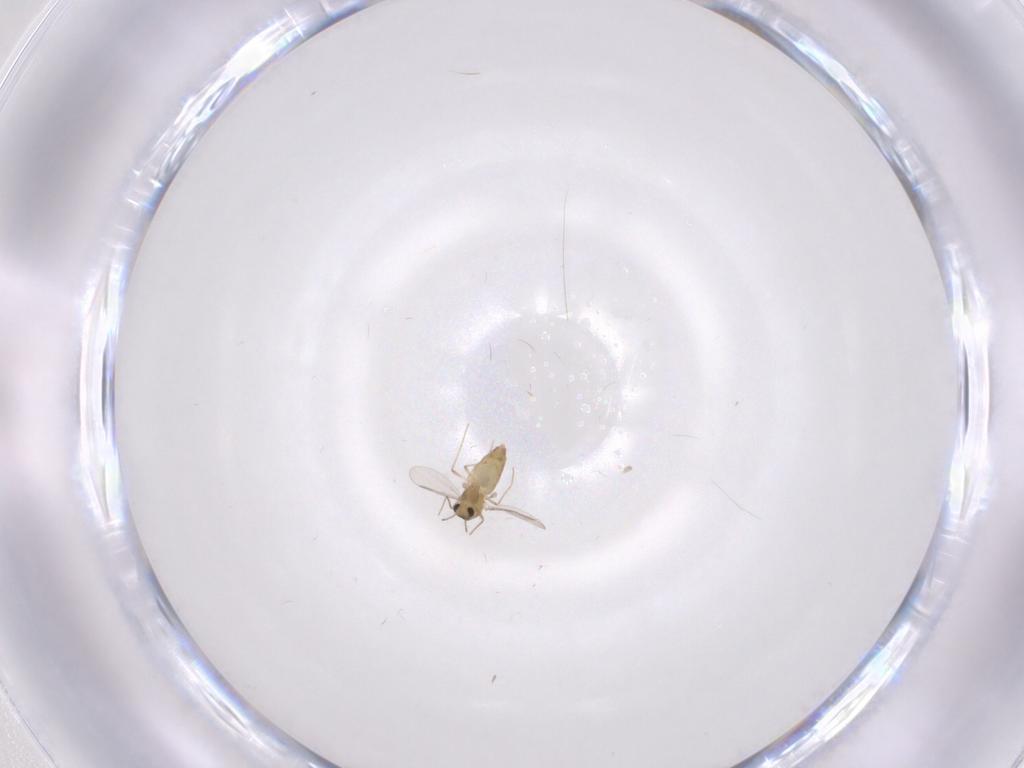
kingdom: Animalia
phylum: Arthropoda
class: Insecta
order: Diptera
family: Chironomidae
